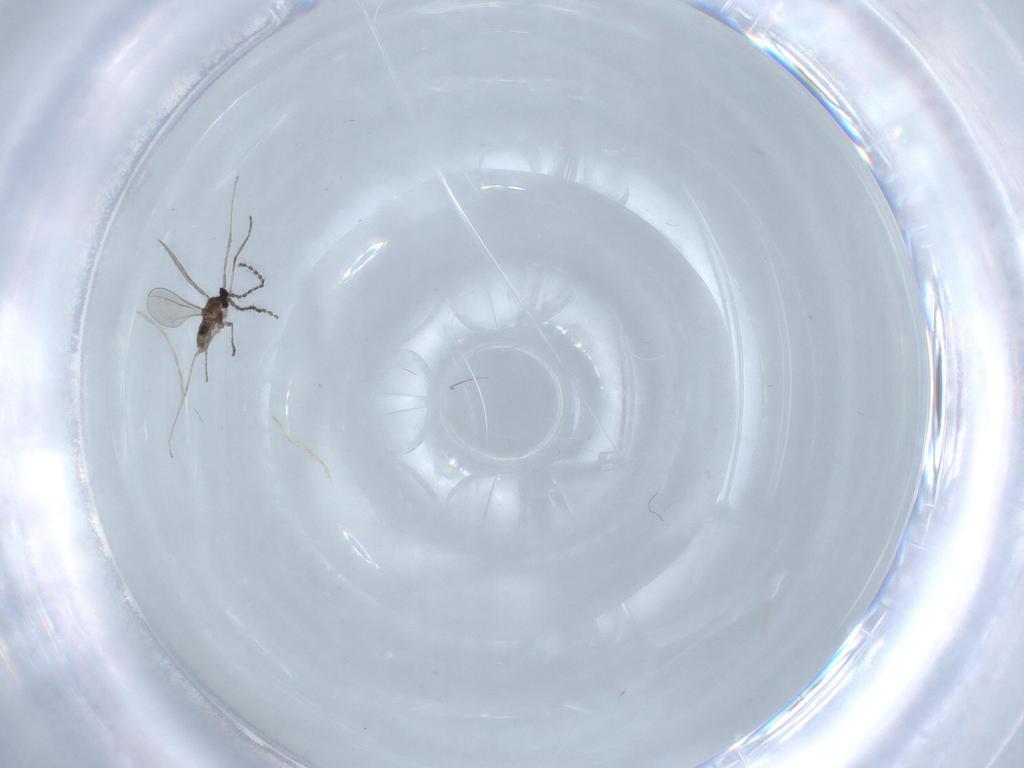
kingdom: Animalia
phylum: Arthropoda
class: Insecta
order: Diptera
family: Sciaridae
